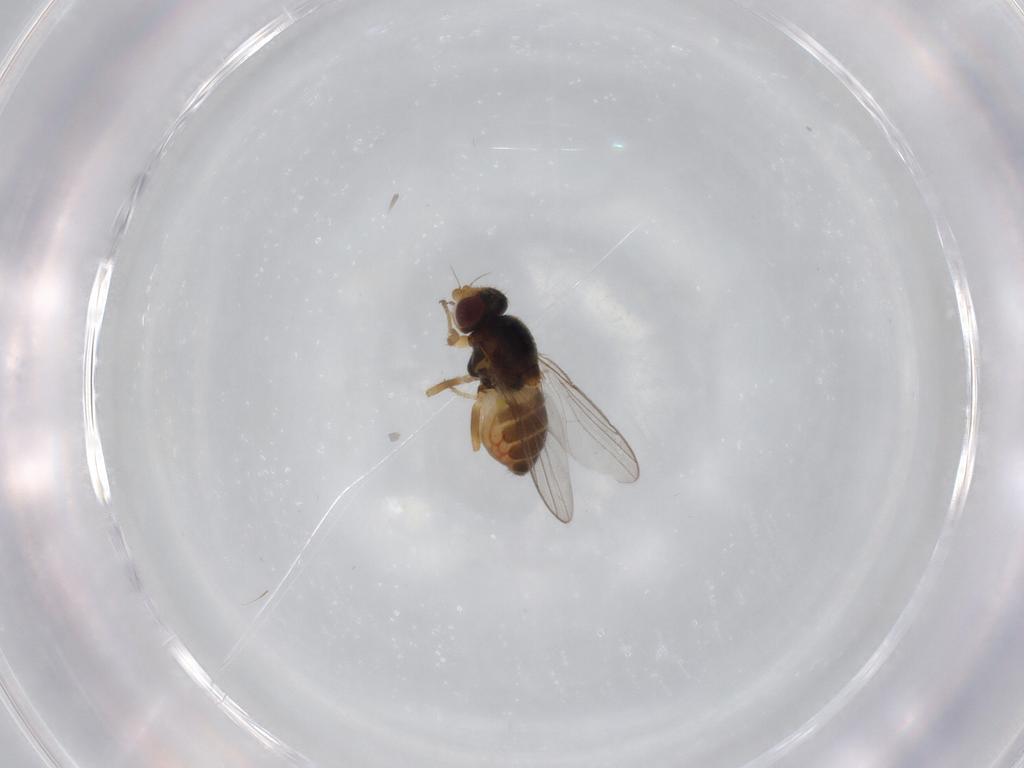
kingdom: Animalia
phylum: Arthropoda
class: Insecta
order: Diptera
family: Chloropidae
